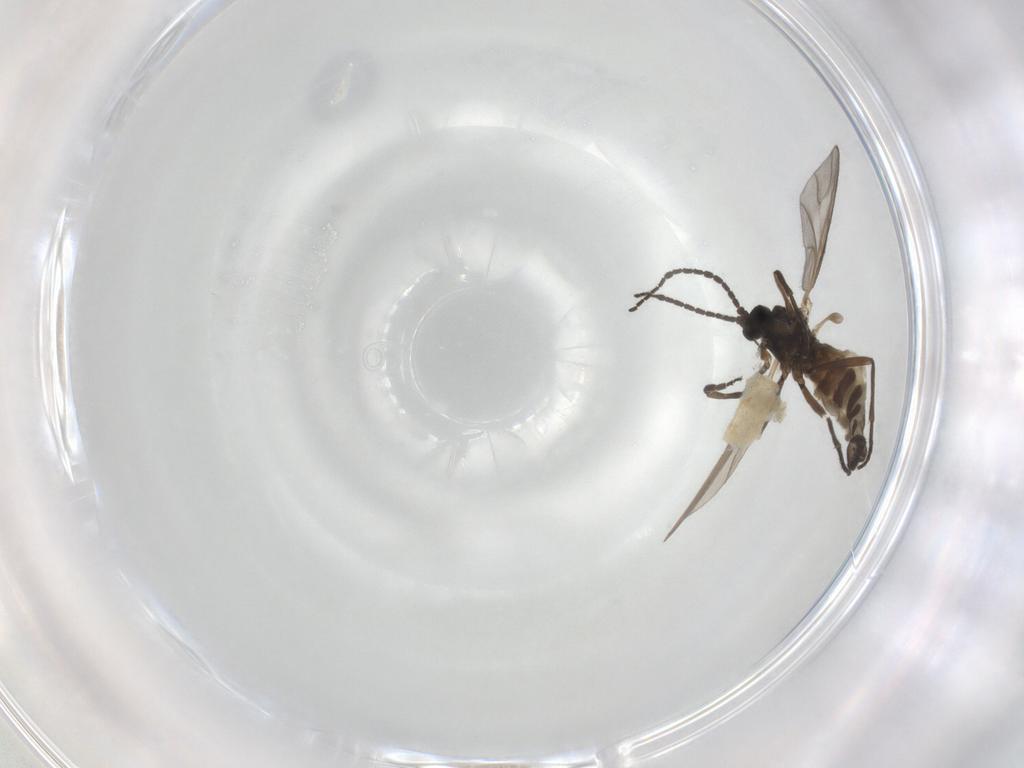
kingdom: Animalia
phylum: Arthropoda
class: Insecta
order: Diptera
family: Sciaridae
